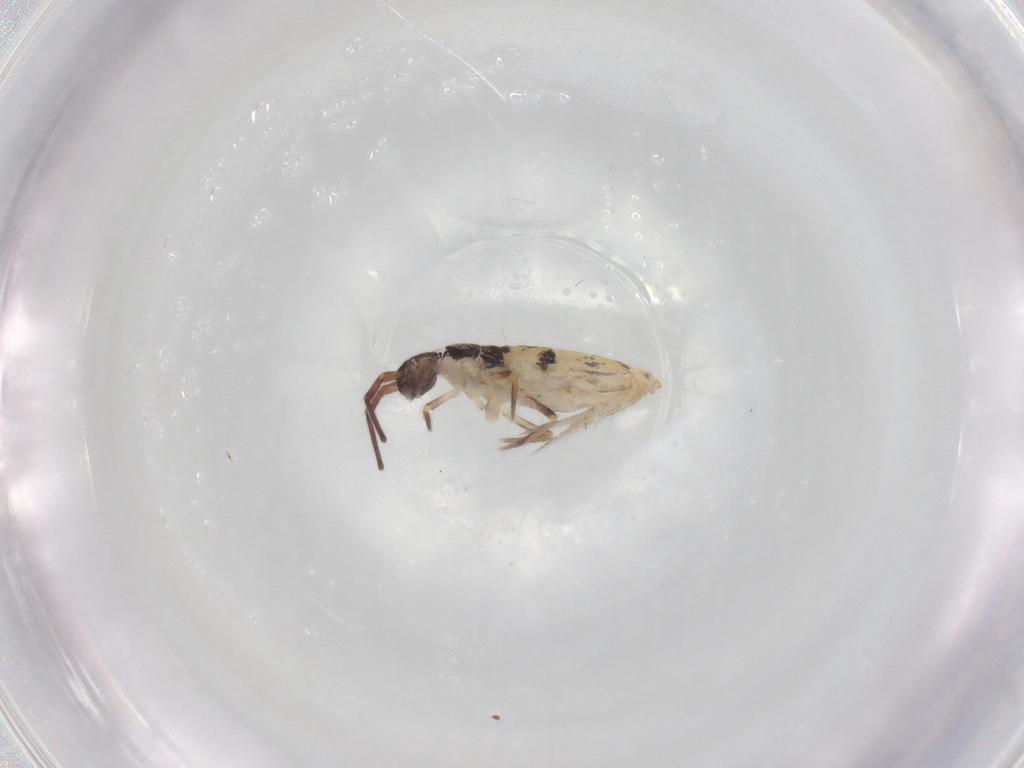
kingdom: Animalia
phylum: Arthropoda
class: Collembola
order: Entomobryomorpha
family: Entomobryidae
